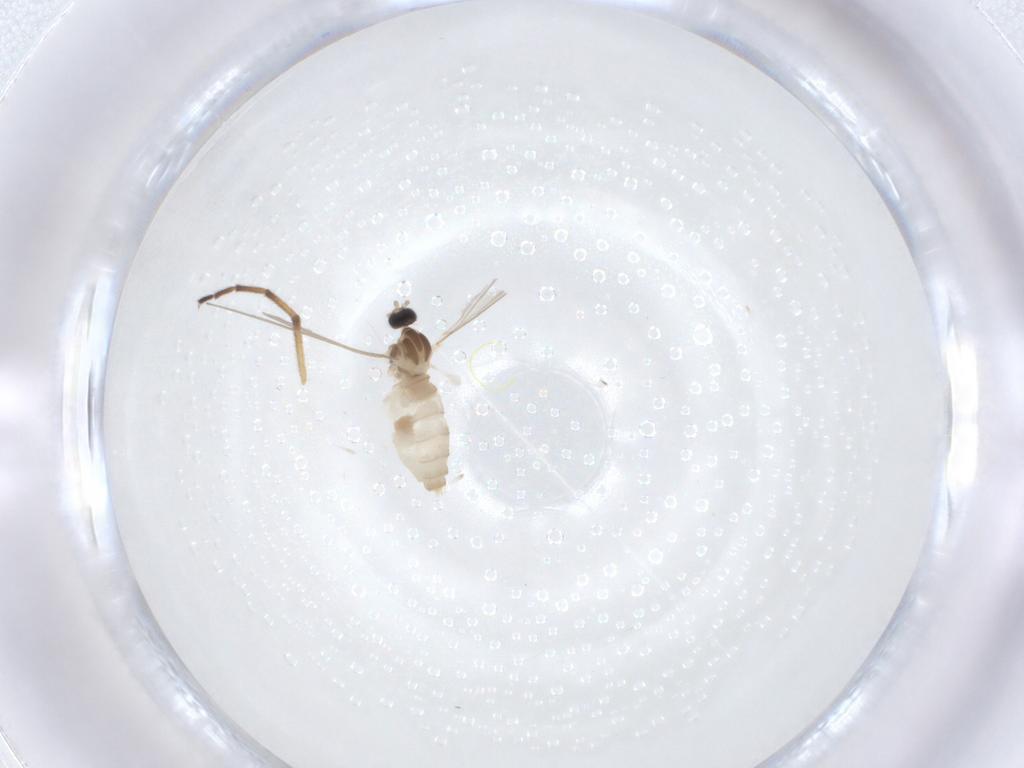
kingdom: Animalia
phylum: Arthropoda
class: Insecta
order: Diptera
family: Cecidomyiidae
